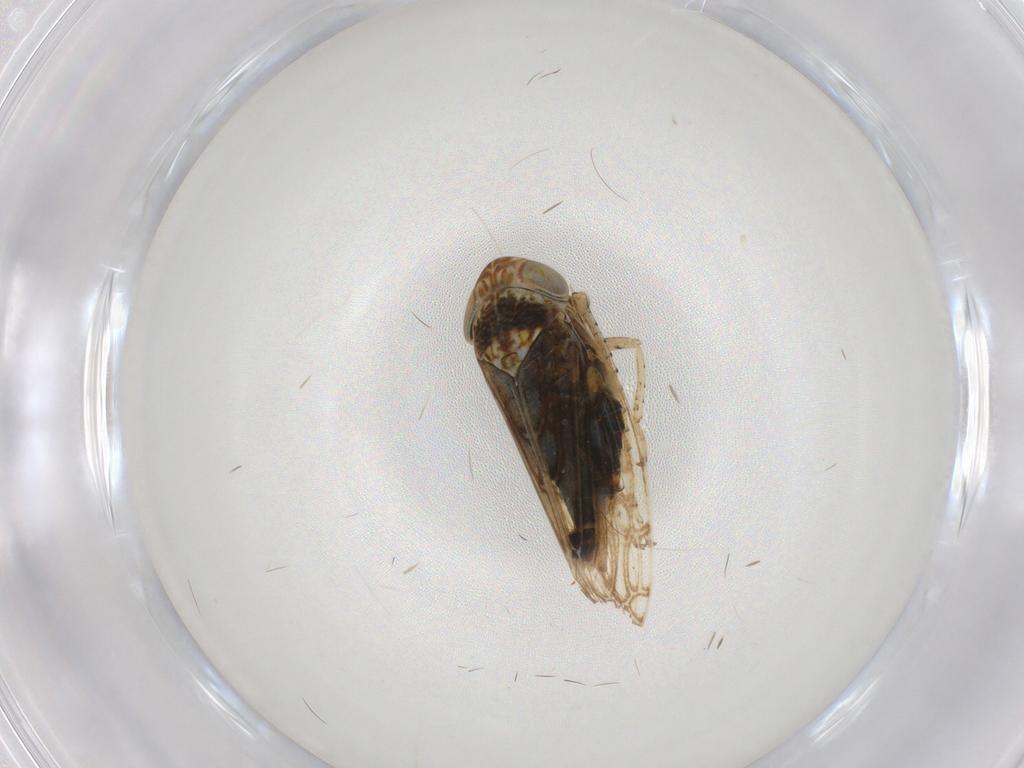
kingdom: Animalia
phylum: Arthropoda
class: Insecta
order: Hemiptera
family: Cicadellidae
